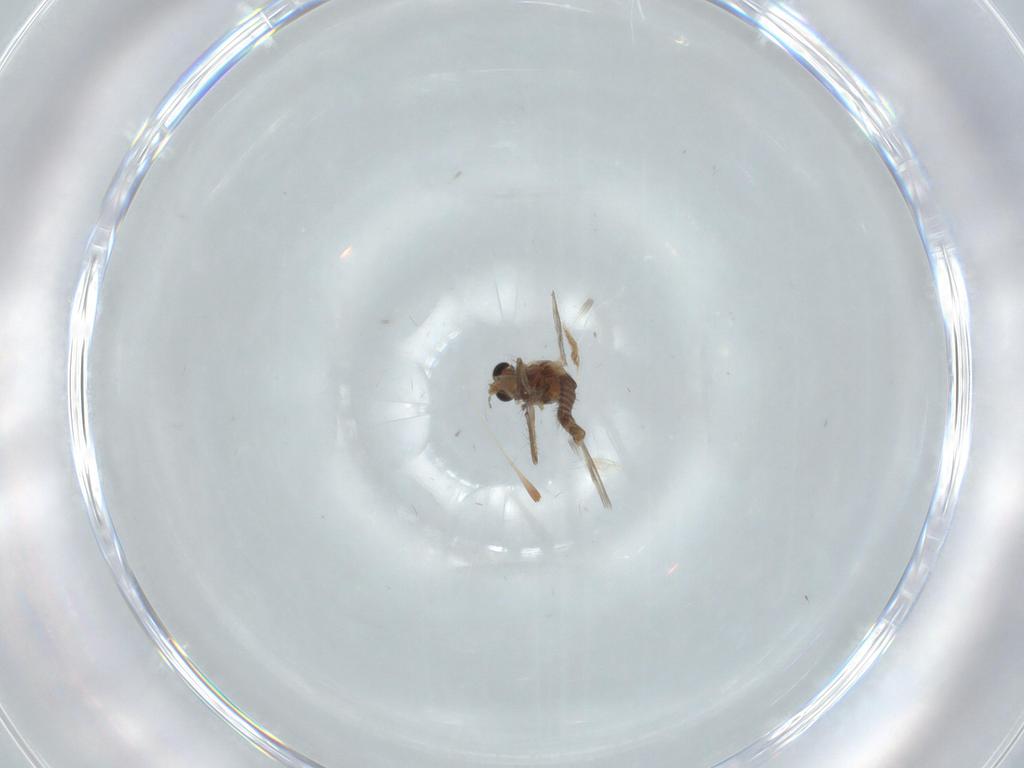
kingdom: Animalia
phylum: Arthropoda
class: Insecta
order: Diptera
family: Chironomidae
